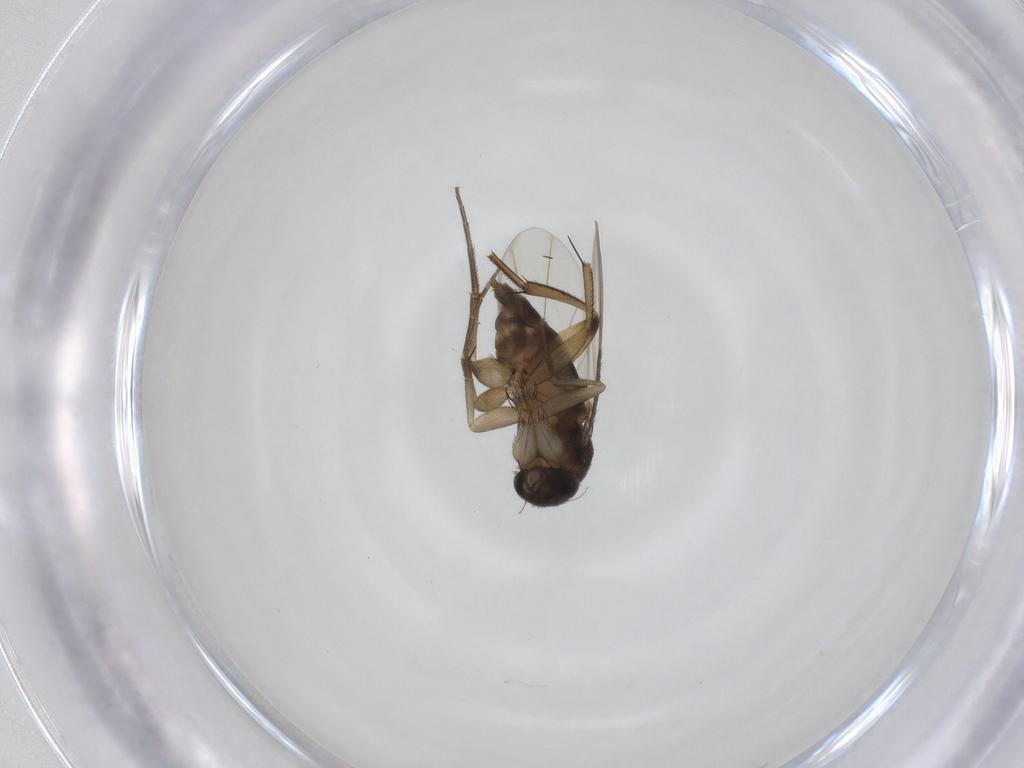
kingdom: Animalia
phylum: Arthropoda
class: Insecta
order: Diptera
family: Phoridae
